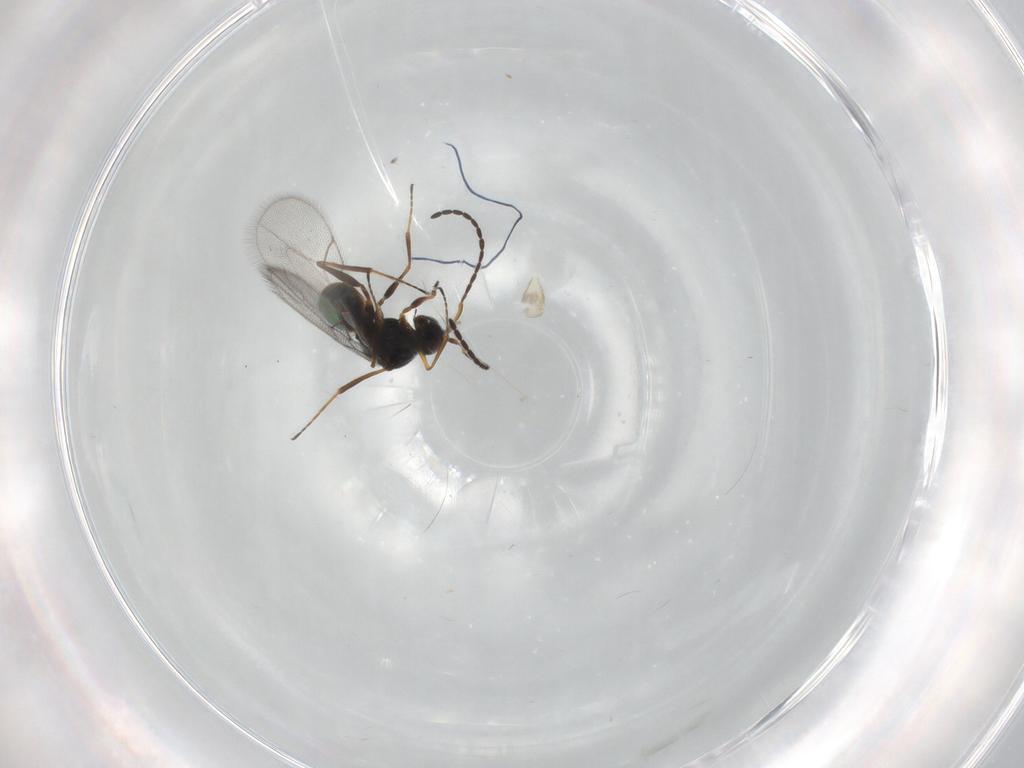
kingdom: Animalia
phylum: Arthropoda
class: Insecta
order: Hymenoptera
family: Figitidae
